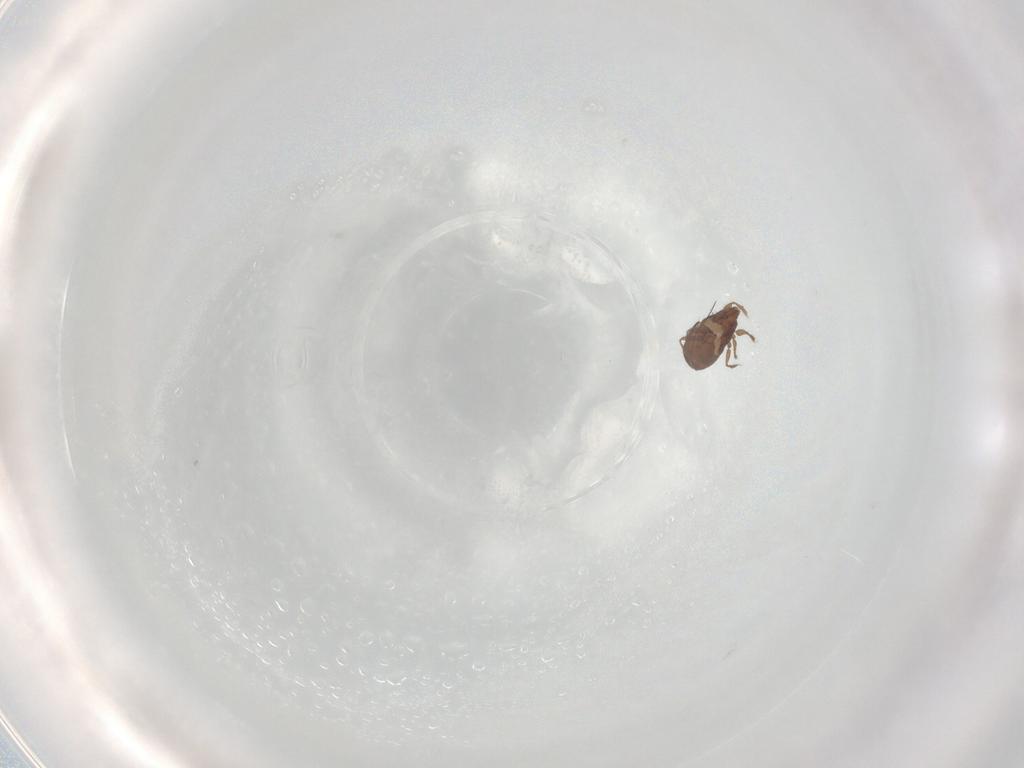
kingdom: Animalia
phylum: Arthropoda
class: Arachnida
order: Sarcoptiformes
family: Oribatulidae
